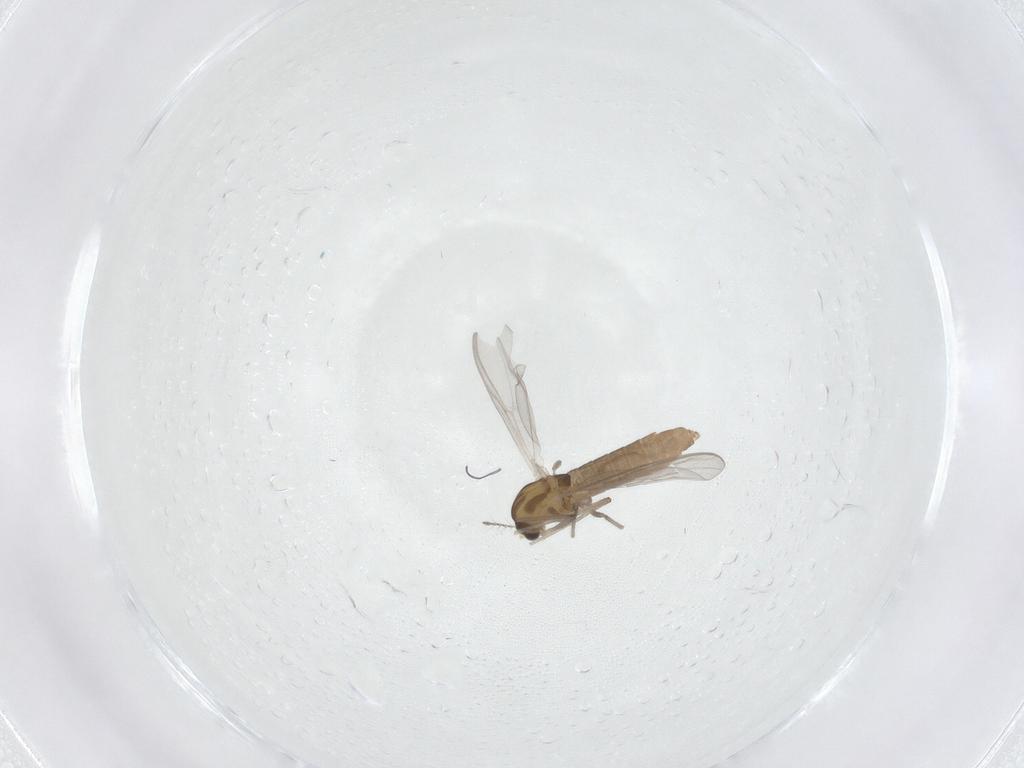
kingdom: Animalia
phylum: Arthropoda
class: Insecta
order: Diptera
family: Chironomidae
